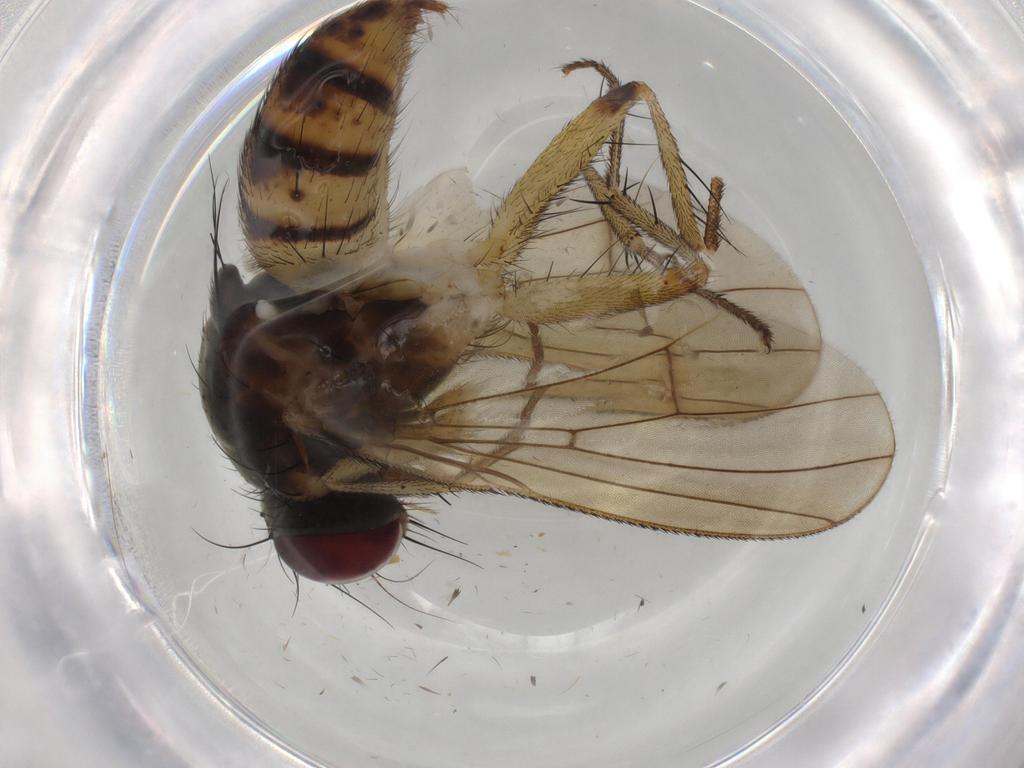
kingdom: Animalia
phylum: Arthropoda
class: Insecta
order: Diptera
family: Muscidae
